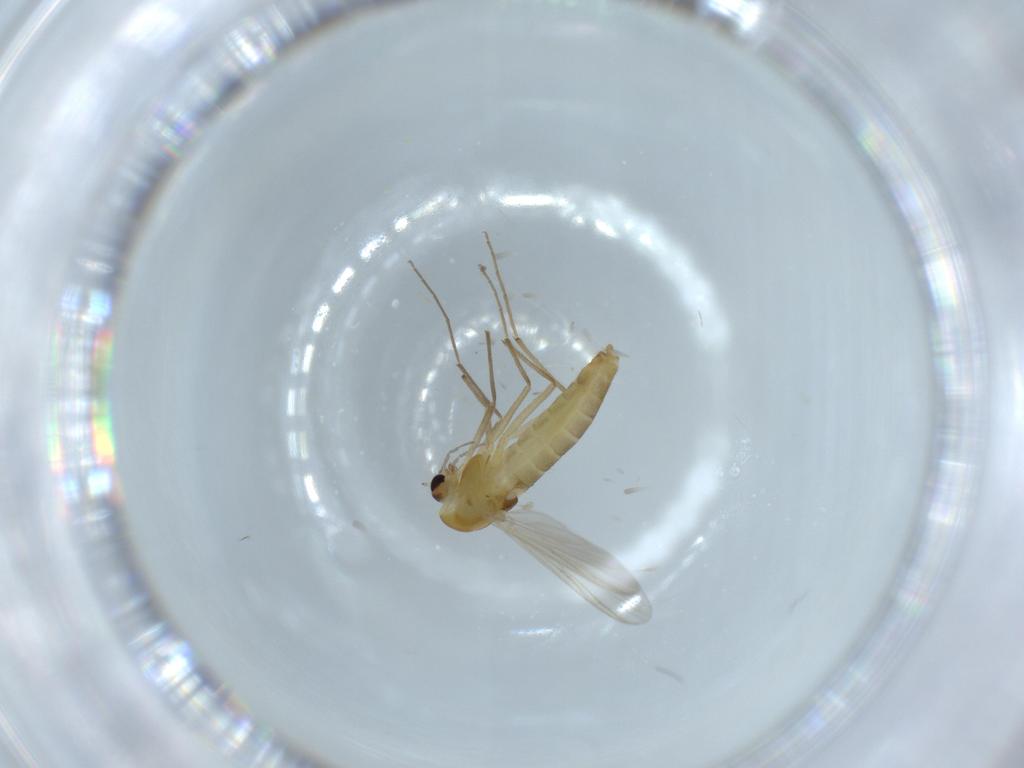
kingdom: Animalia
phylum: Arthropoda
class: Insecta
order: Diptera
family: Chironomidae
